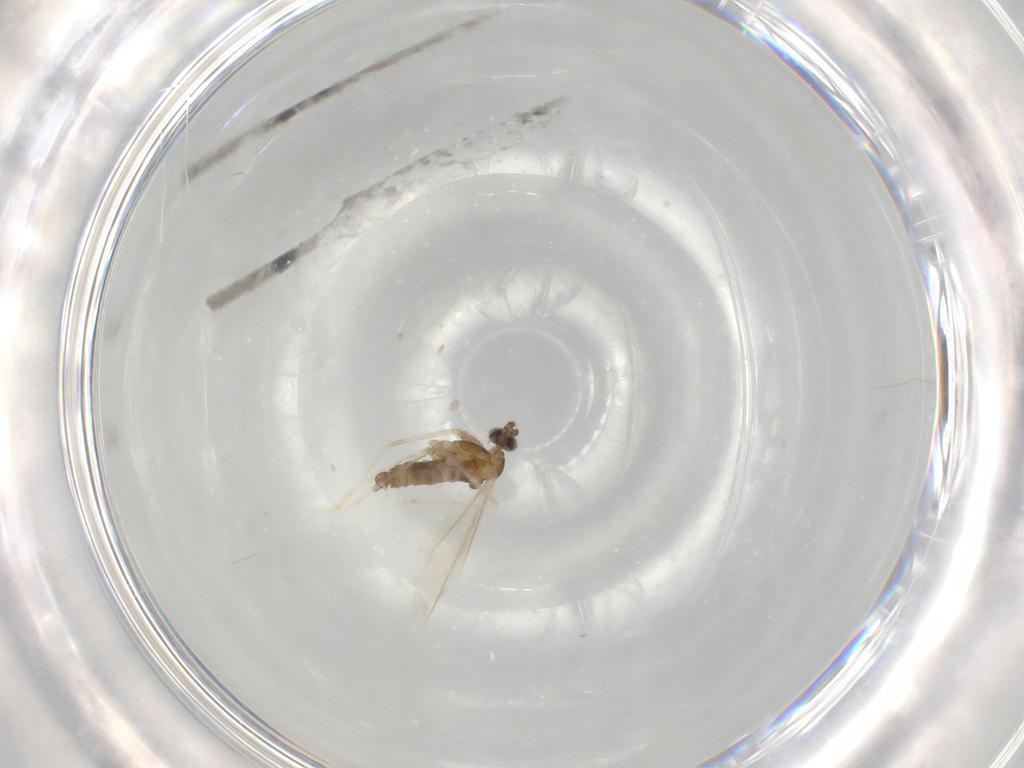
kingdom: Animalia
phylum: Arthropoda
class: Insecta
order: Diptera
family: Cecidomyiidae
